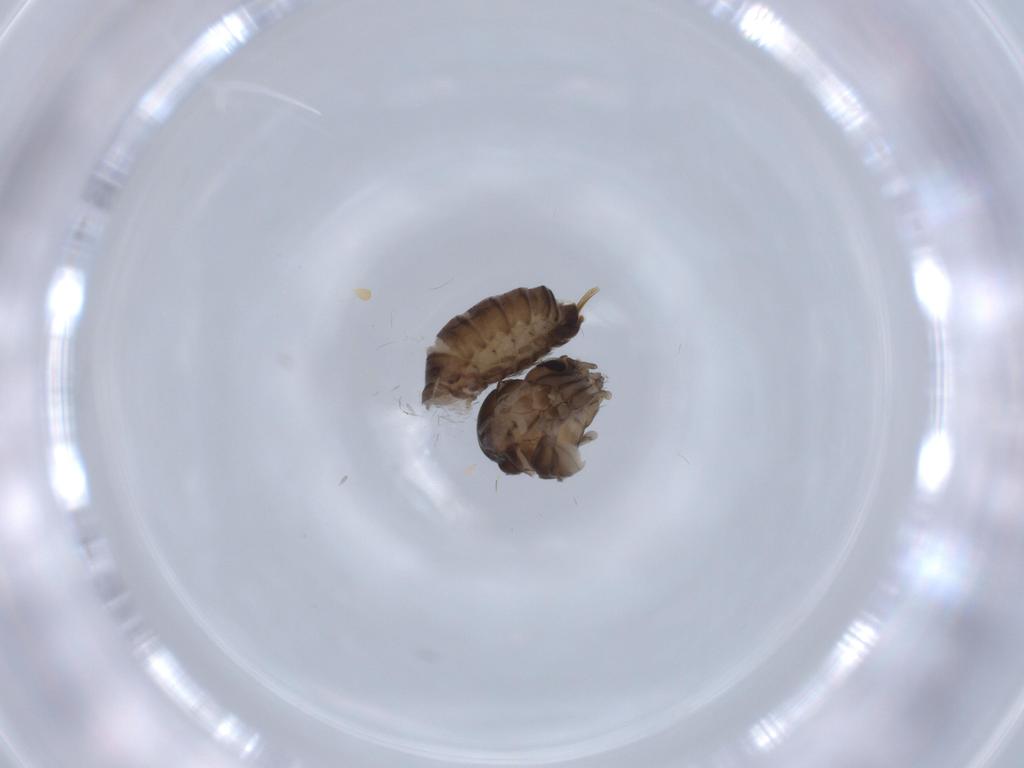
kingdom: Animalia
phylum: Arthropoda
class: Insecta
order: Diptera
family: Psychodidae
